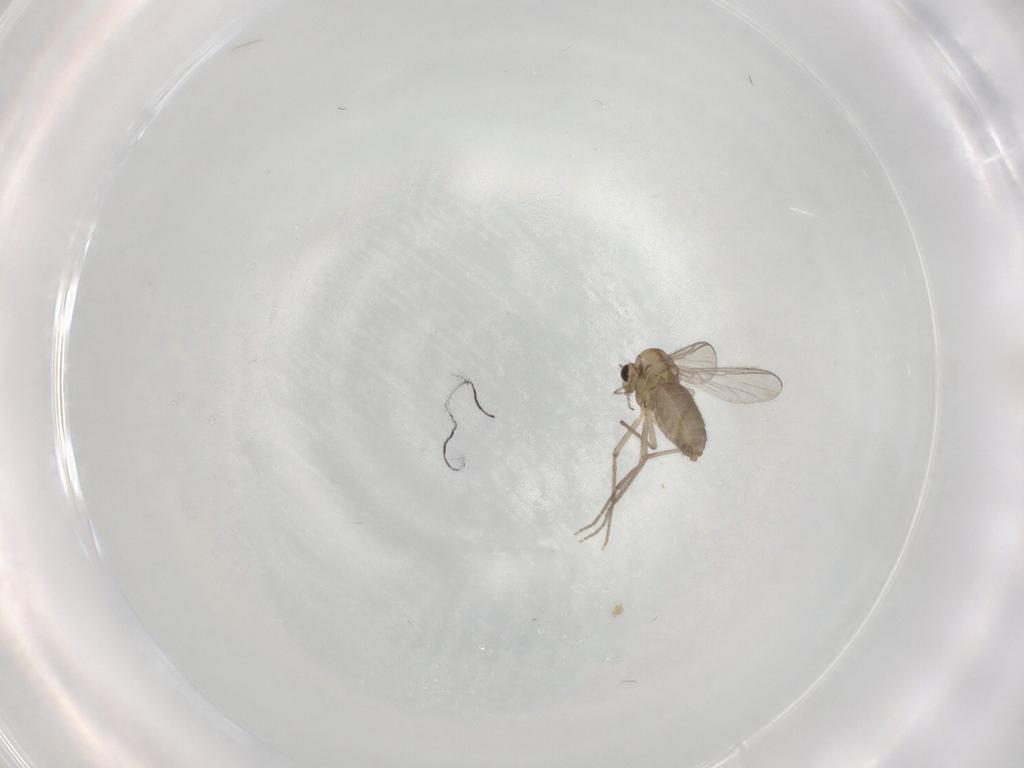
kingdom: Animalia
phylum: Arthropoda
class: Insecta
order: Diptera
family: Chironomidae
